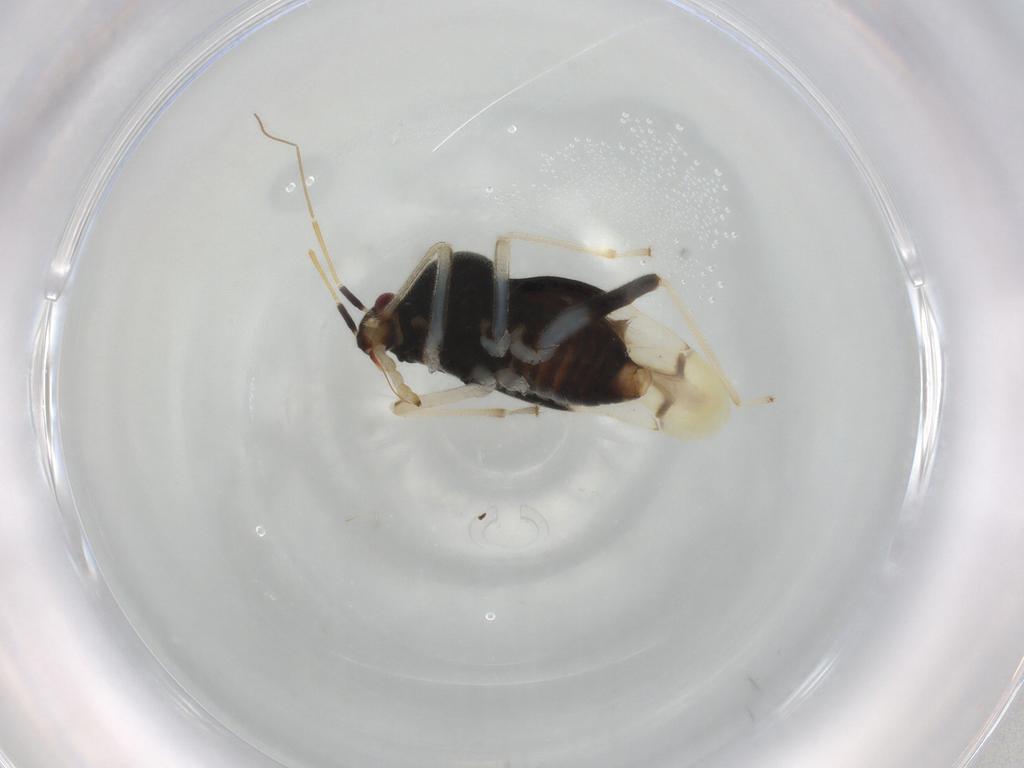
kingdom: Animalia
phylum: Arthropoda
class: Insecta
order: Hemiptera
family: Miridae
